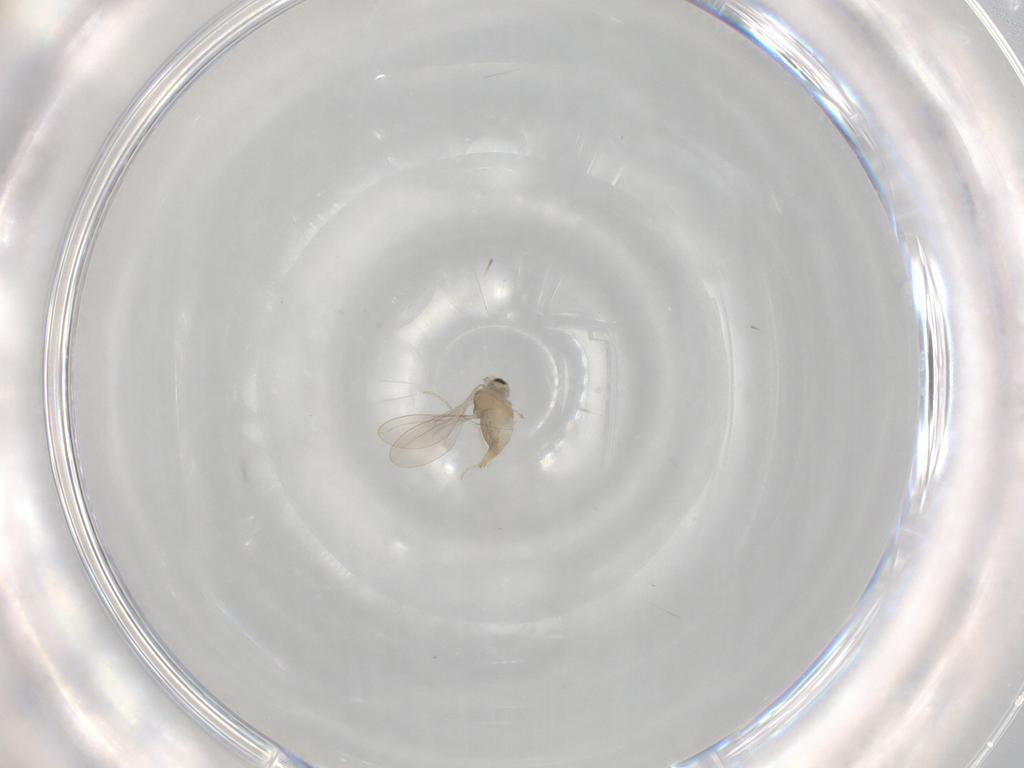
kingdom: Animalia
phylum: Arthropoda
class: Insecta
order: Diptera
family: Cecidomyiidae
